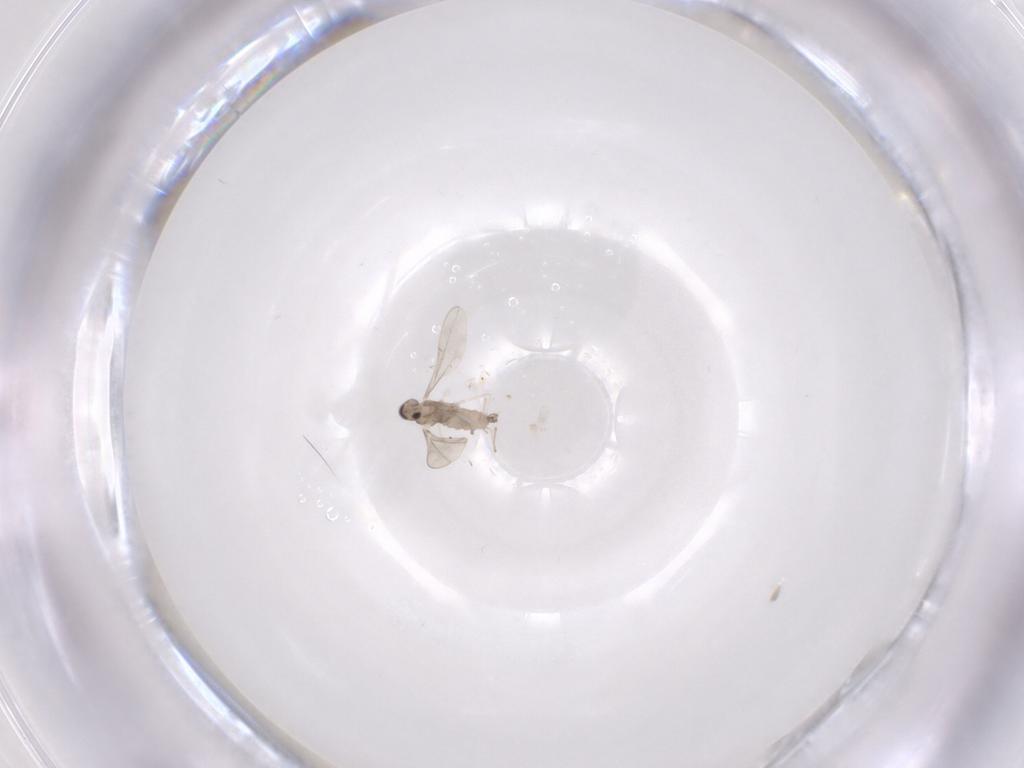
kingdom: Animalia
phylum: Arthropoda
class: Insecta
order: Diptera
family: Cecidomyiidae
